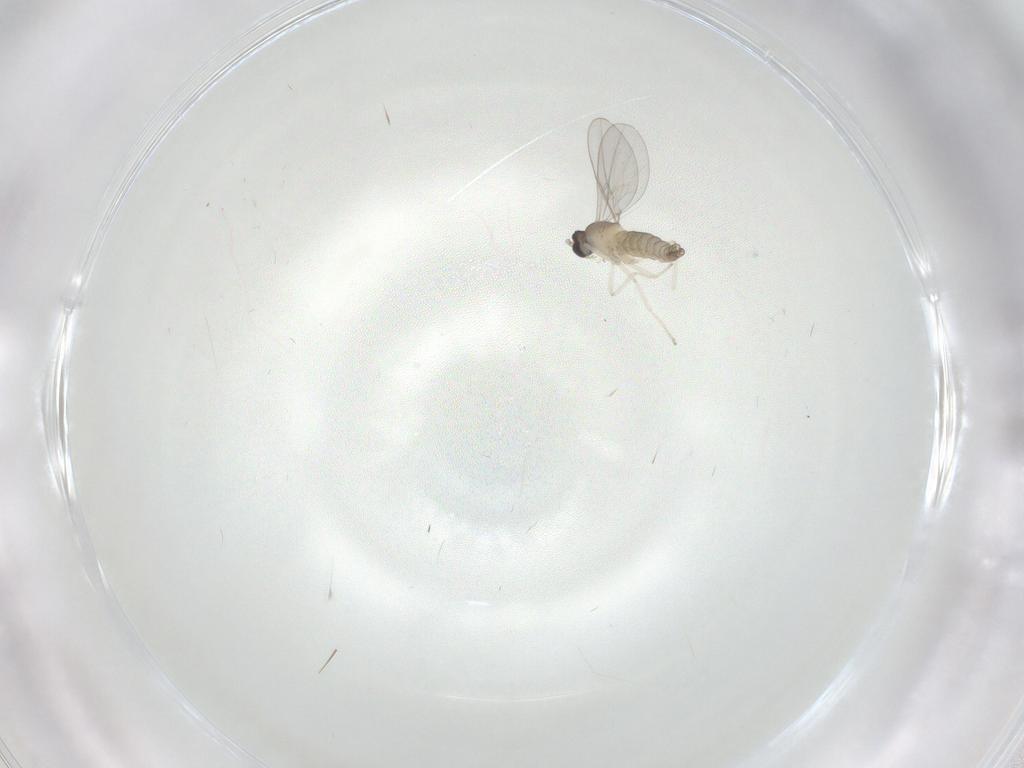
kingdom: Animalia
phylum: Arthropoda
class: Insecta
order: Diptera
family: Cecidomyiidae
